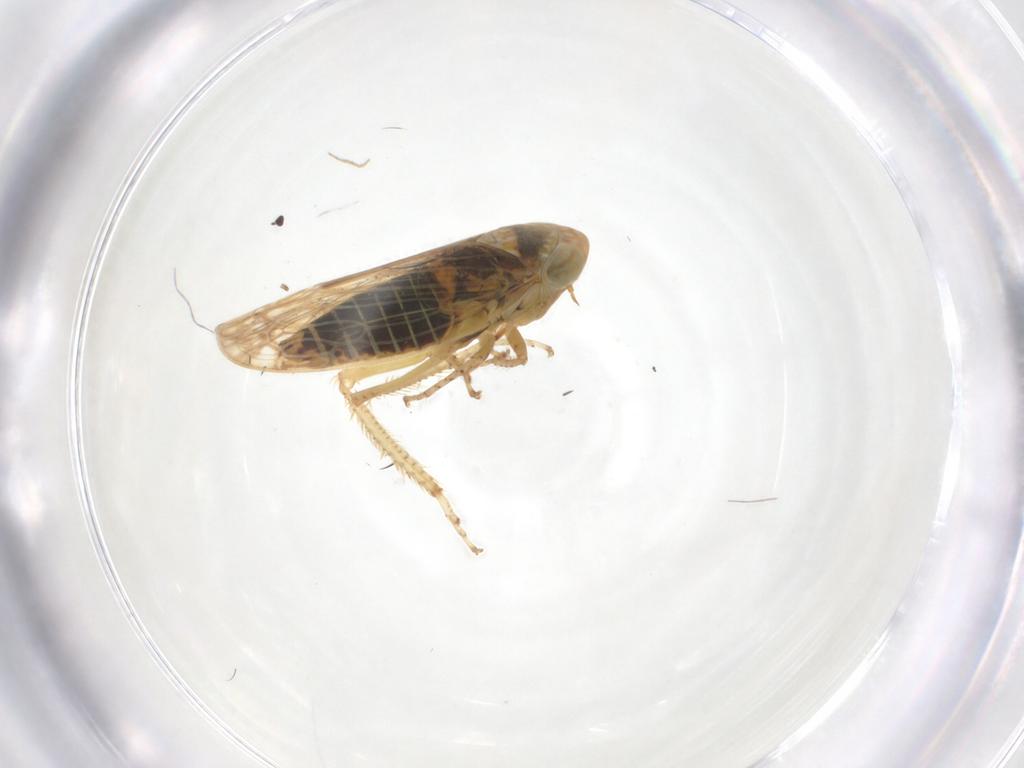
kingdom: Animalia
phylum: Arthropoda
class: Insecta
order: Hemiptera
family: Cicadellidae
